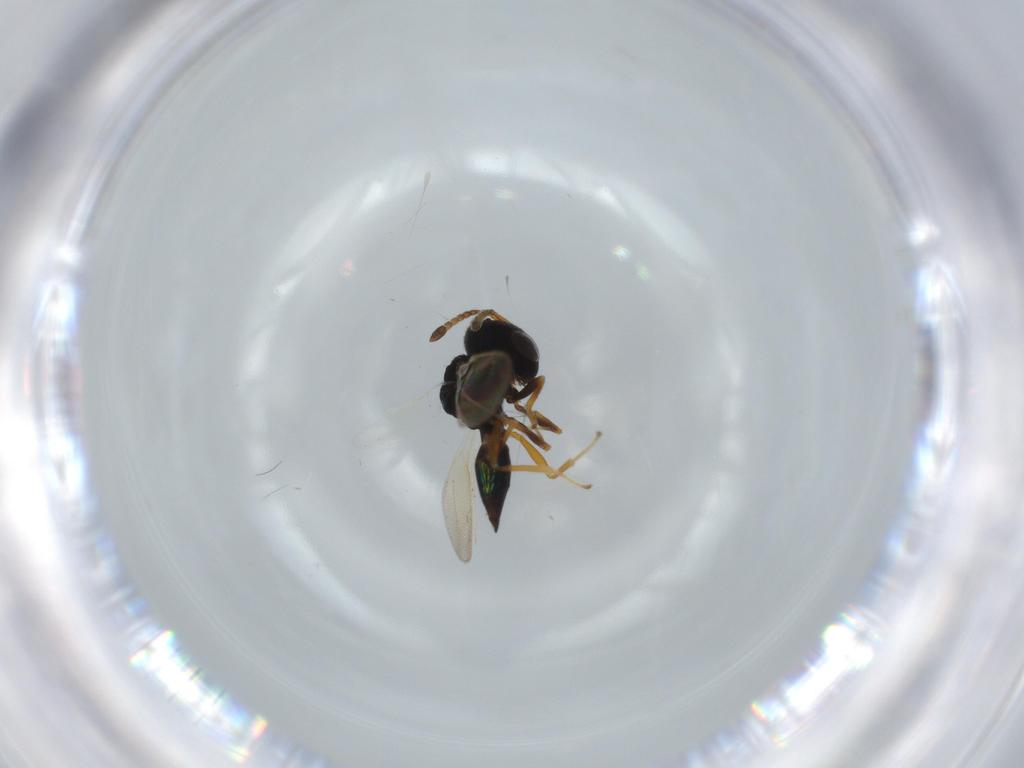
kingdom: Animalia
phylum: Arthropoda
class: Insecta
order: Hymenoptera
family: Pteromalidae
